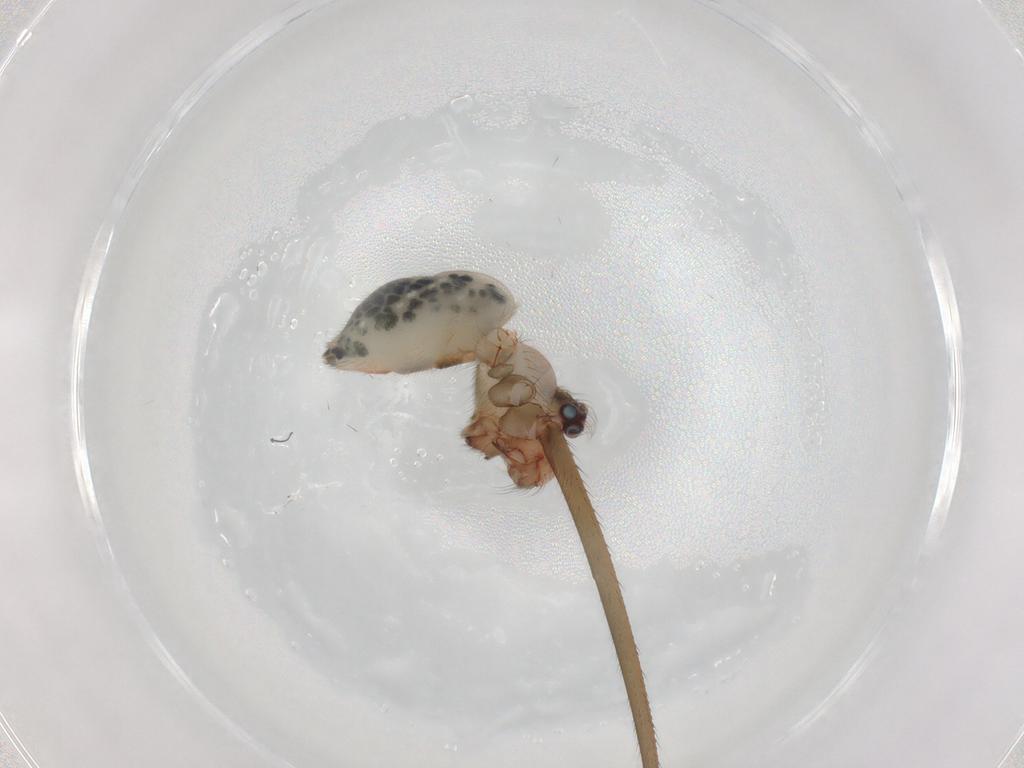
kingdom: Animalia
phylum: Arthropoda
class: Arachnida
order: Araneae
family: Pholcidae
